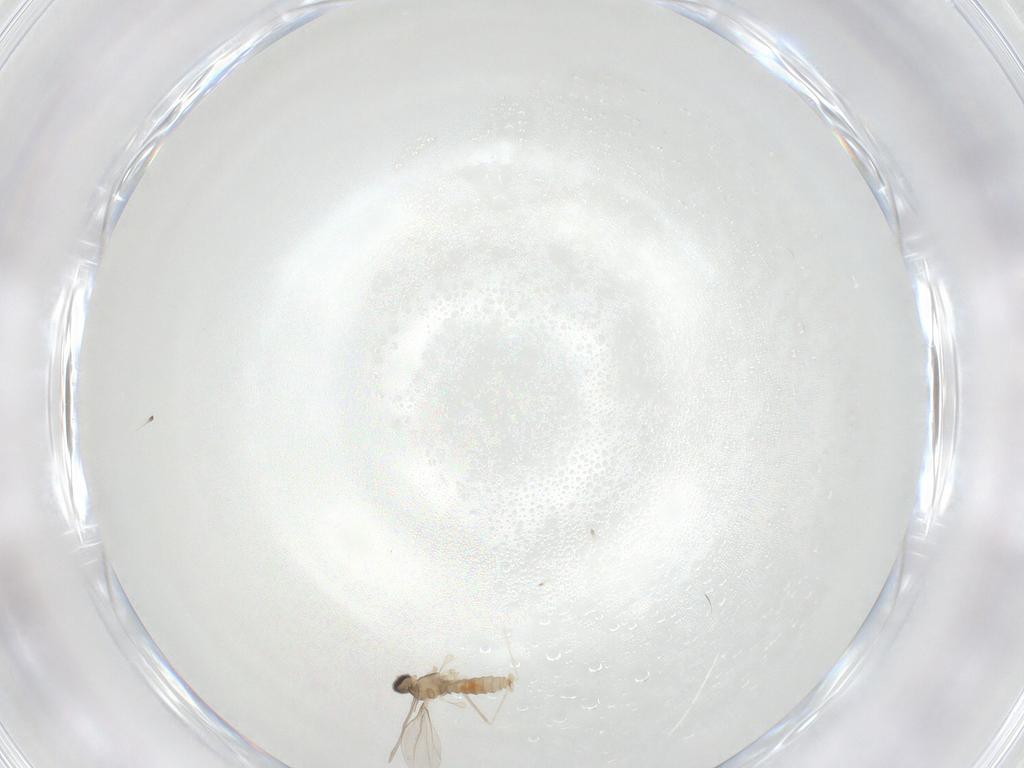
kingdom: Animalia
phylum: Arthropoda
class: Insecta
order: Diptera
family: Cecidomyiidae
